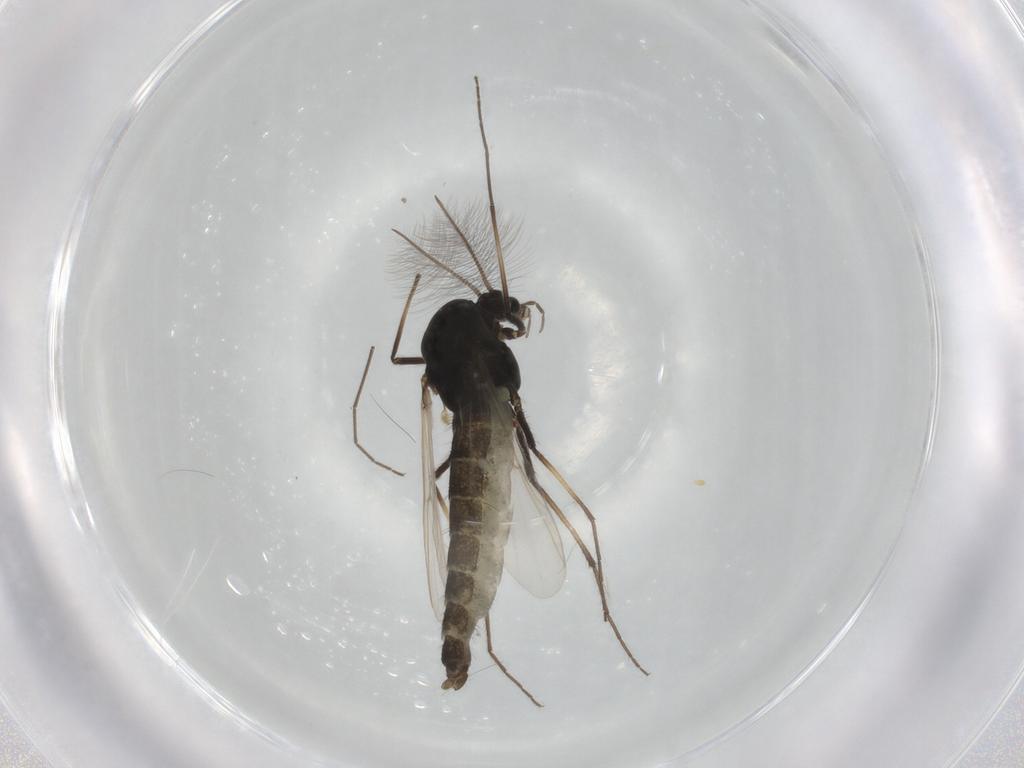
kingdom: Animalia
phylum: Arthropoda
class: Insecta
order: Diptera
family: Chironomidae
